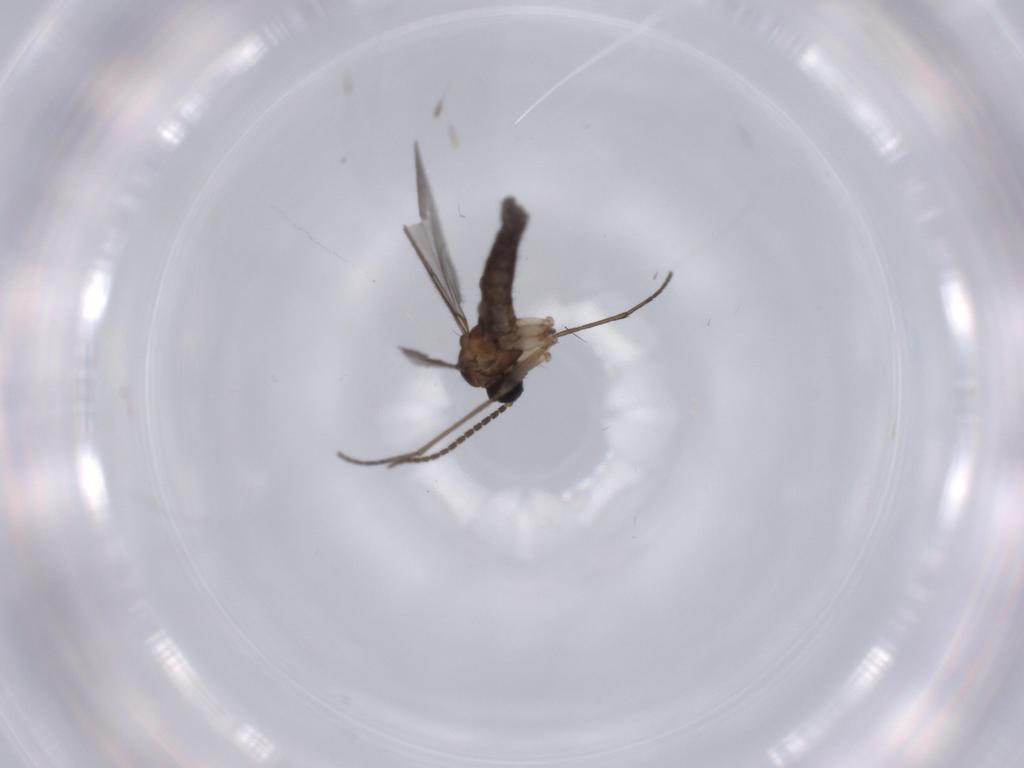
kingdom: Animalia
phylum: Arthropoda
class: Insecta
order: Diptera
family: Sciaridae
